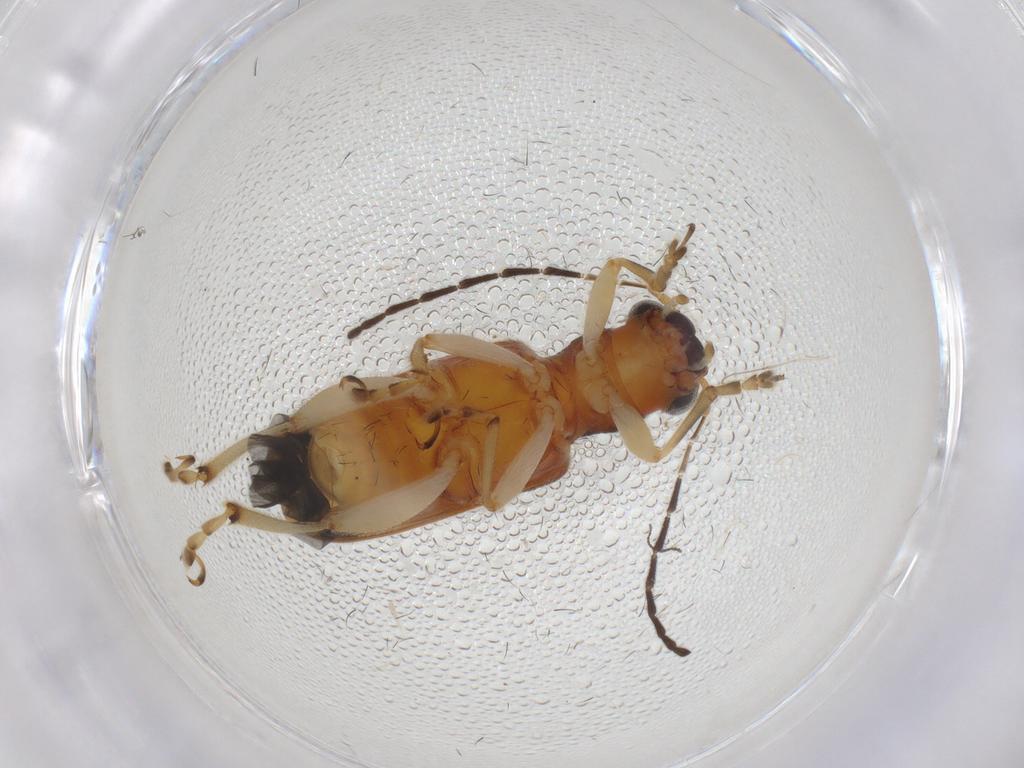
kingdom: Animalia
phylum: Arthropoda
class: Insecta
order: Coleoptera
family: Chrysomelidae
